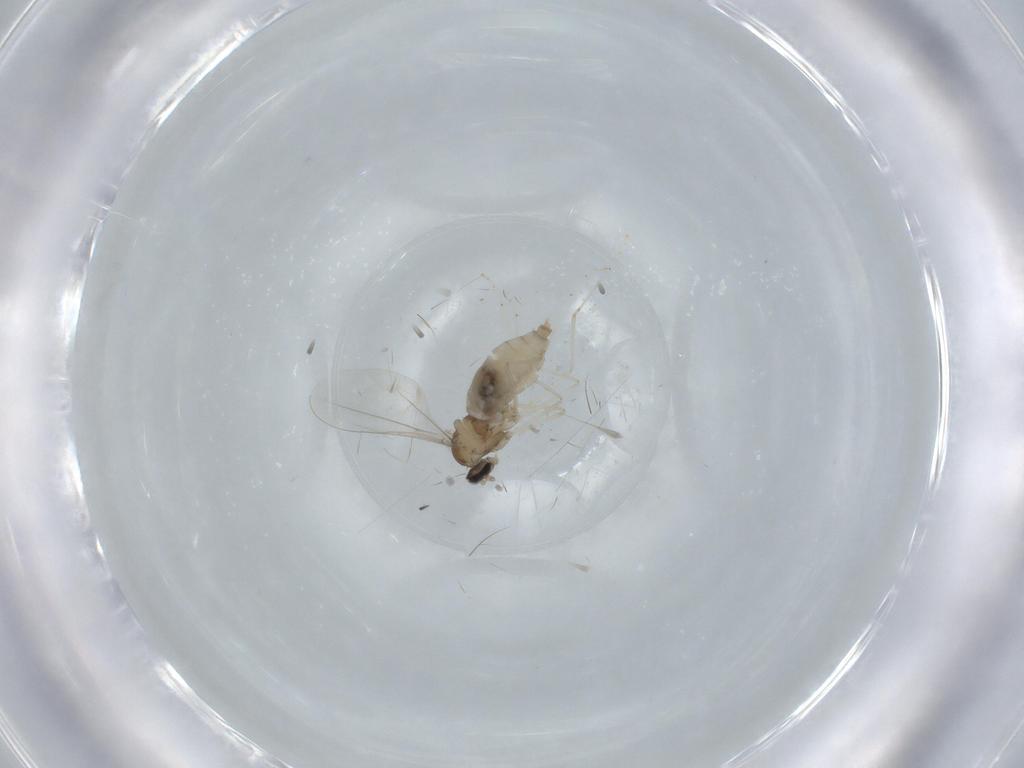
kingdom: Animalia
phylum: Arthropoda
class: Insecta
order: Diptera
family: Cecidomyiidae
